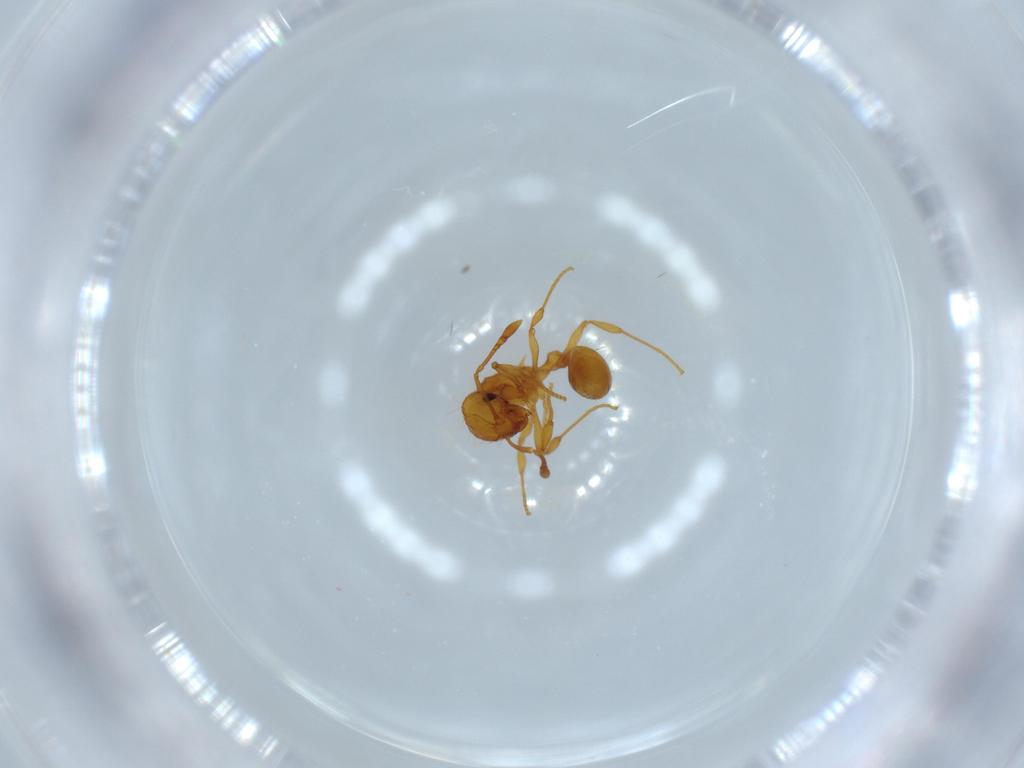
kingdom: Animalia
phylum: Arthropoda
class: Insecta
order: Hymenoptera
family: Formicidae
